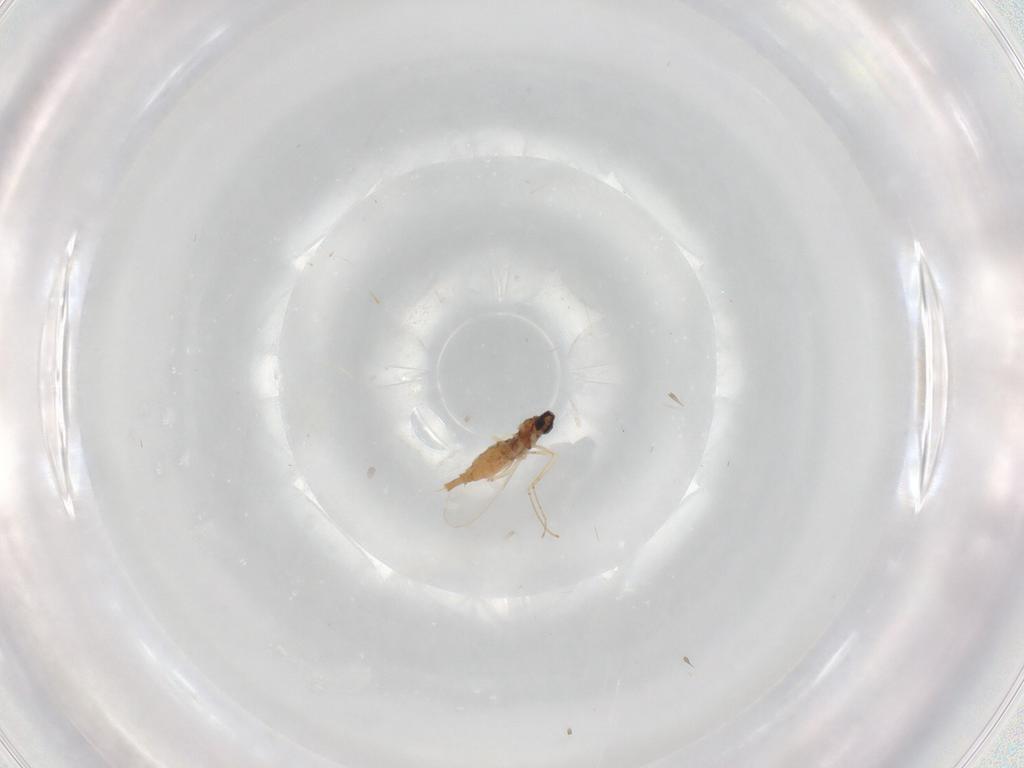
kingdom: Animalia
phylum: Arthropoda
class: Insecta
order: Diptera
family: Cecidomyiidae
